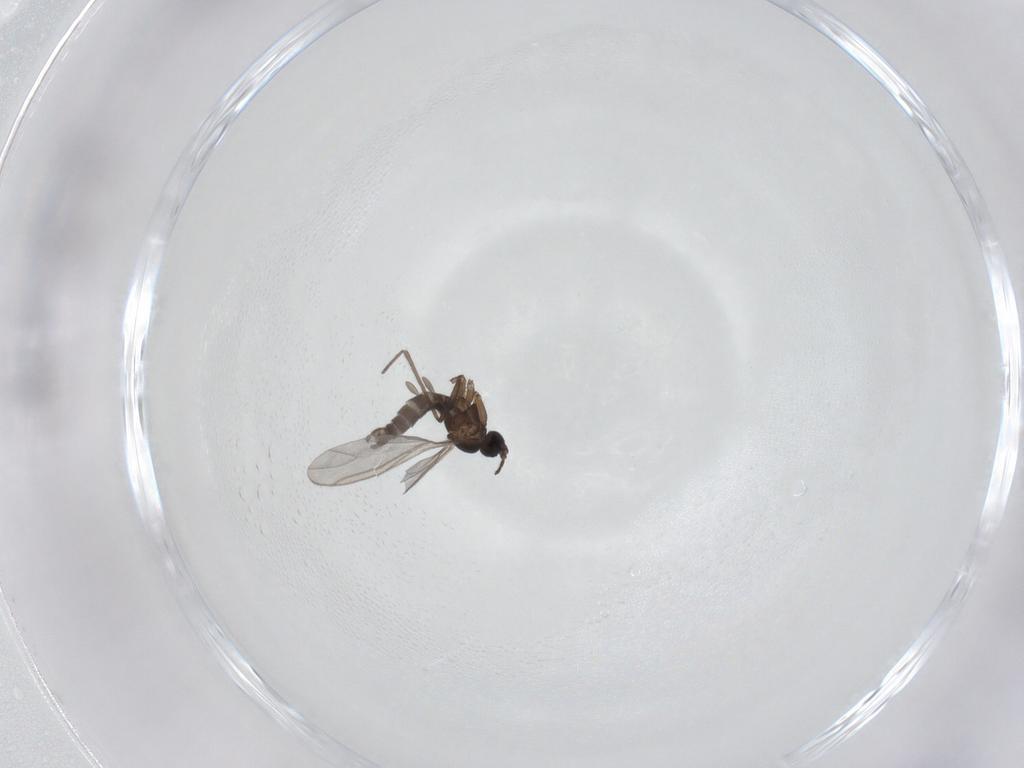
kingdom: Animalia
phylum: Arthropoda
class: Insecta
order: Diptera
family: Sciaridae
